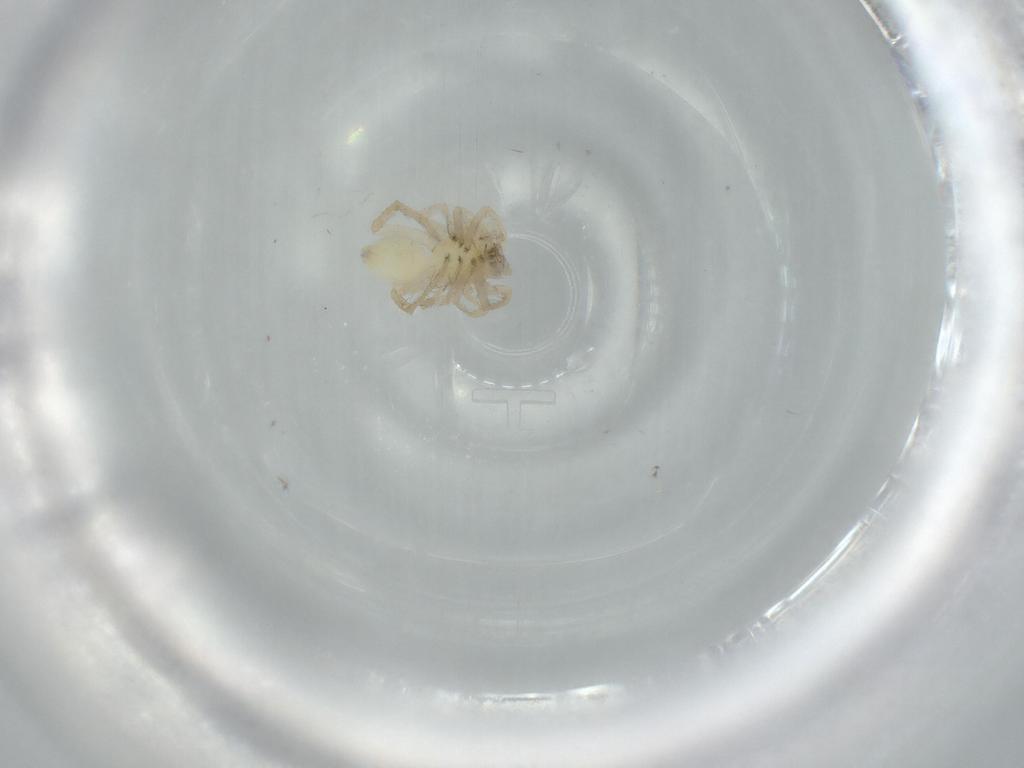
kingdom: Animalia
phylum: Arthropoda
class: Arachnida
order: Araneae
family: Anyphaenidae
